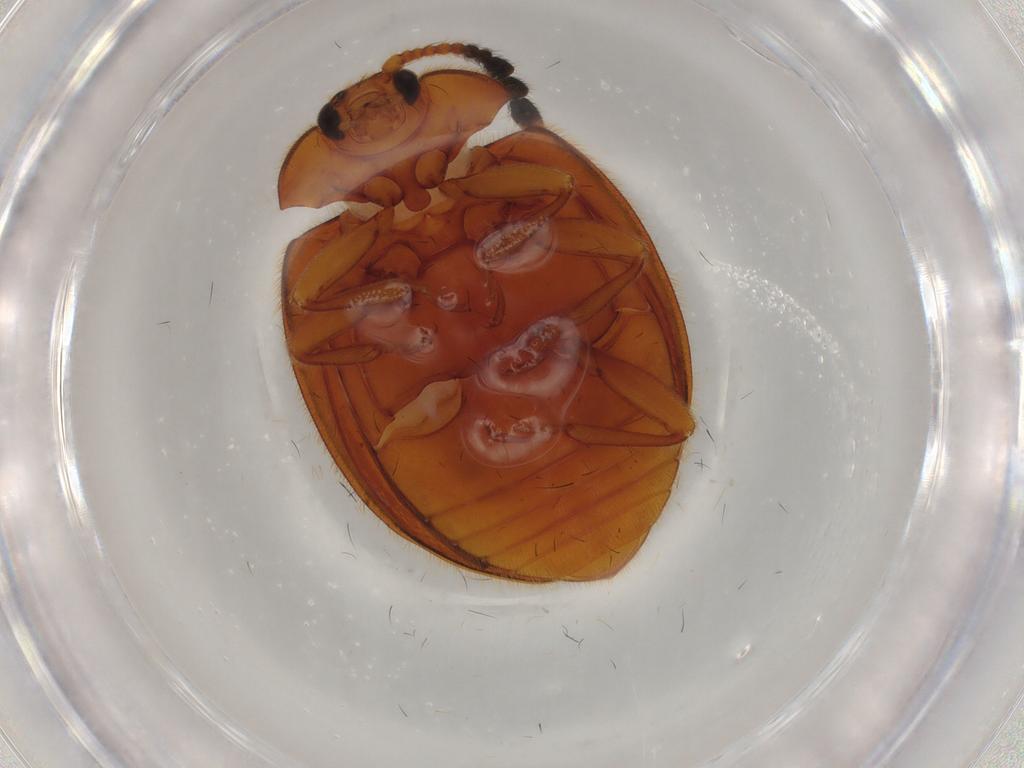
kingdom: Animalia
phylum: Arthropoda
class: Insecta
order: Coleoptera
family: Endomychidae
